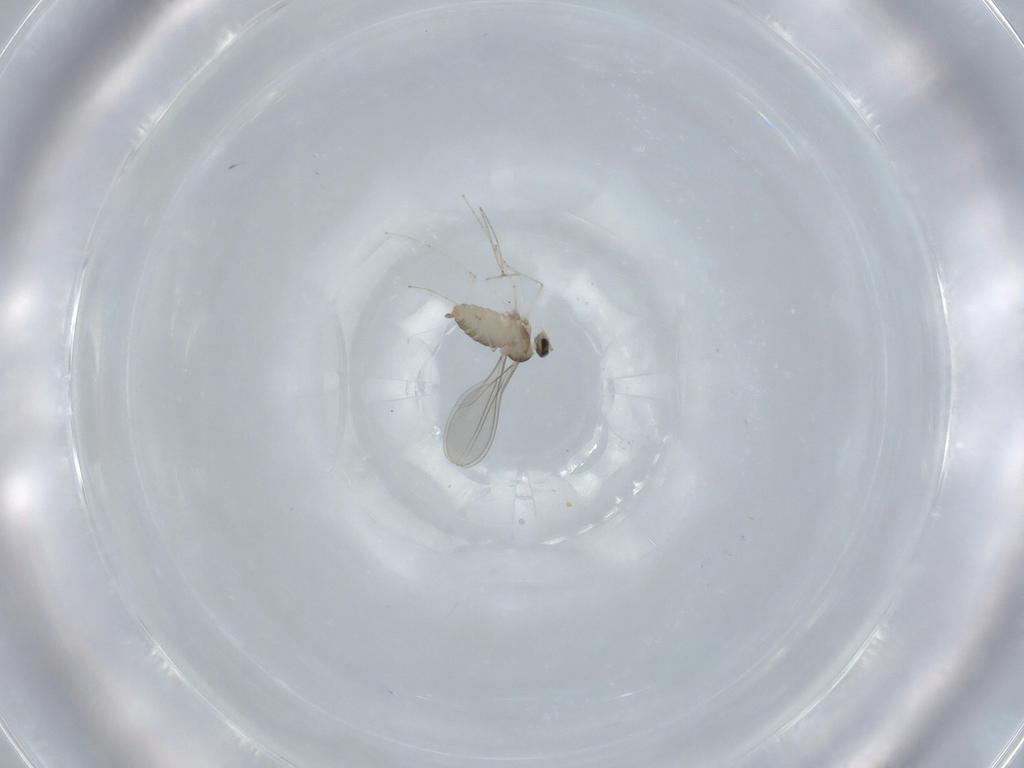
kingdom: Animalia
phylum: Arthropoda
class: Insecta
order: Diptera
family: Cecidomyiidae
